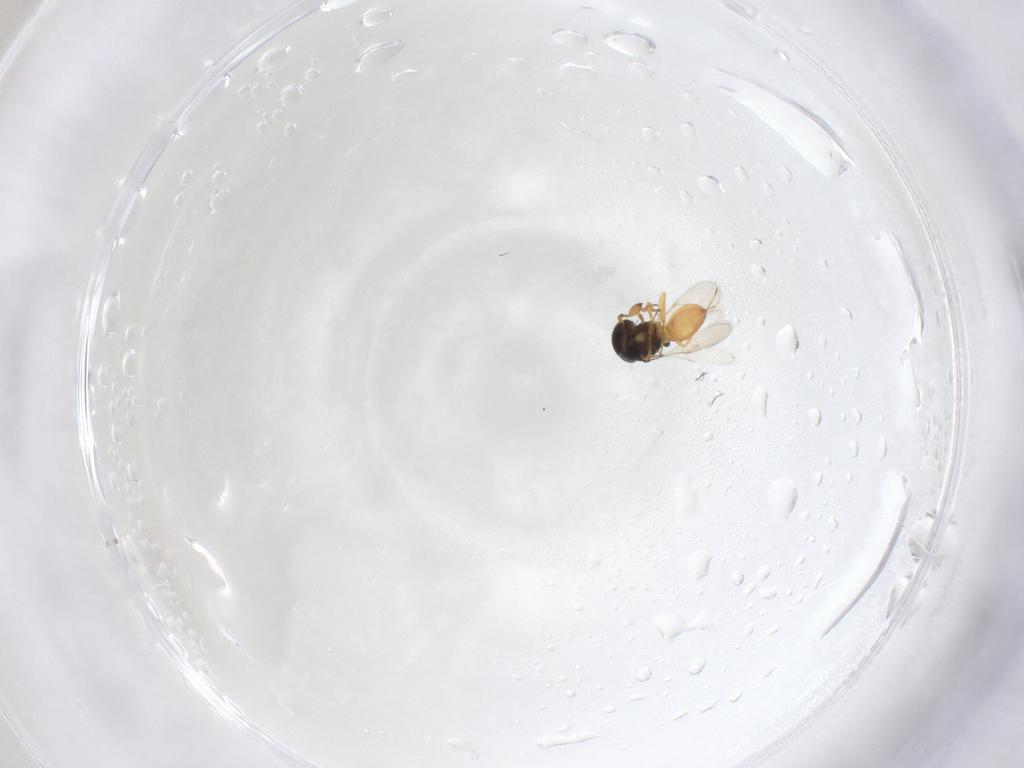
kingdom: Animalia
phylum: Arthropoda
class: Insecta
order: Hymenoptera
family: Scelionidae
